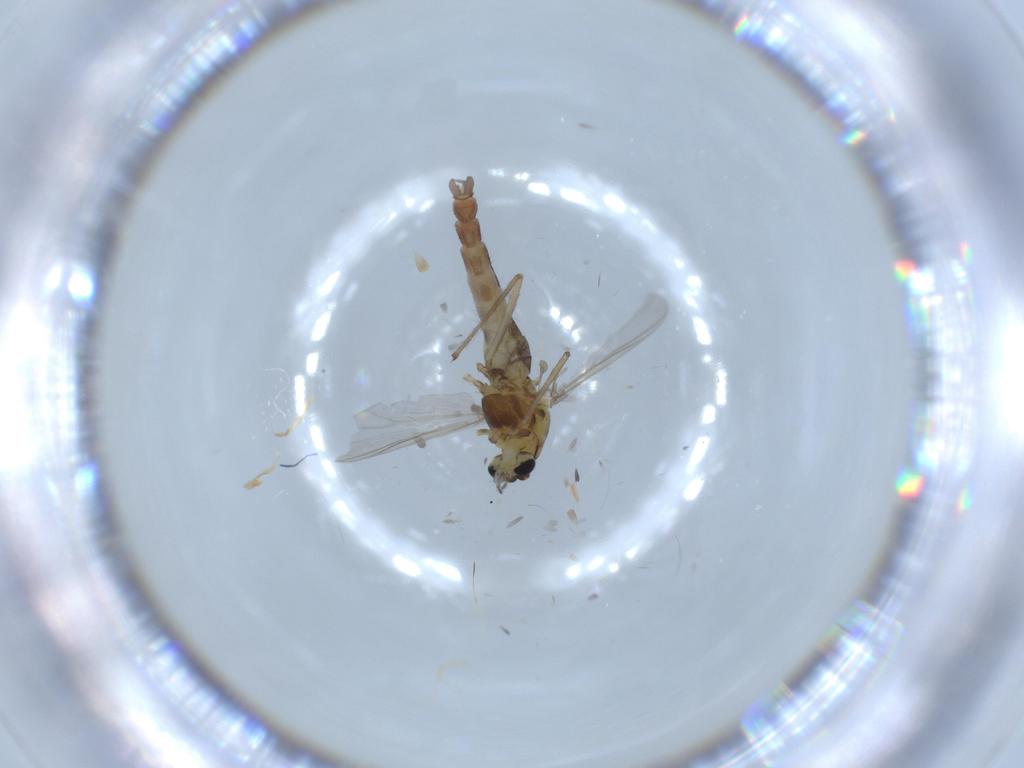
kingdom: Animalia
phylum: Arthropoda
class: Insecta
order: Diptera
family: Chironomidae
